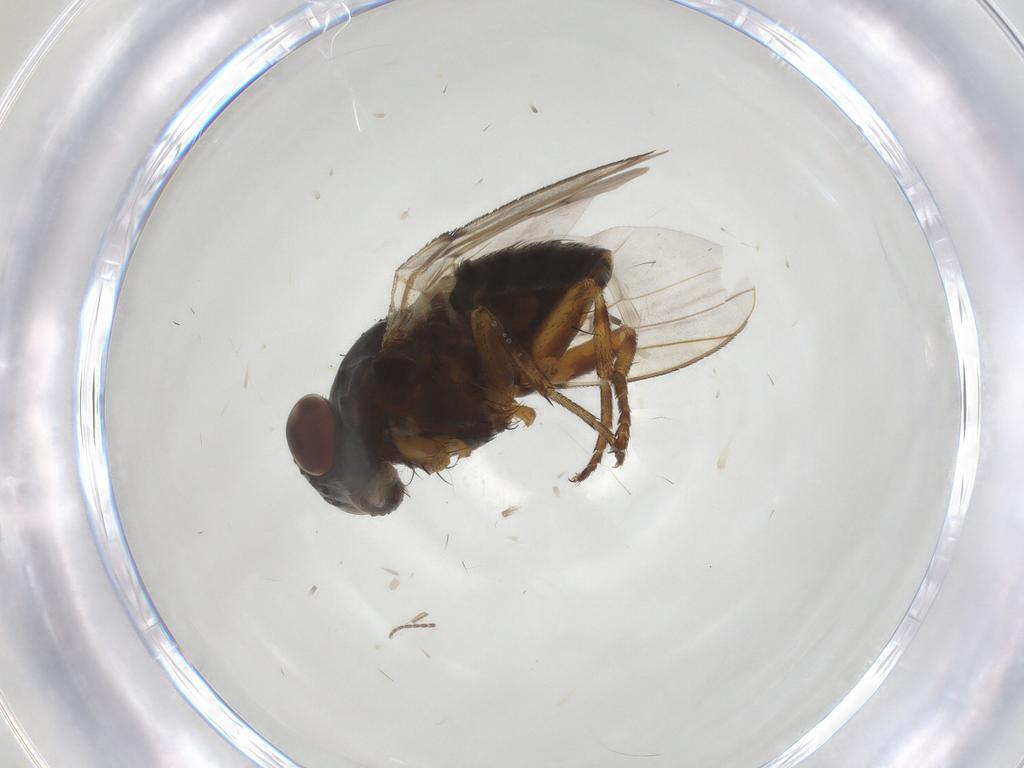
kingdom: Animalia
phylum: Arthropoda
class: Insecta
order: Diptera
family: Odiniidae
